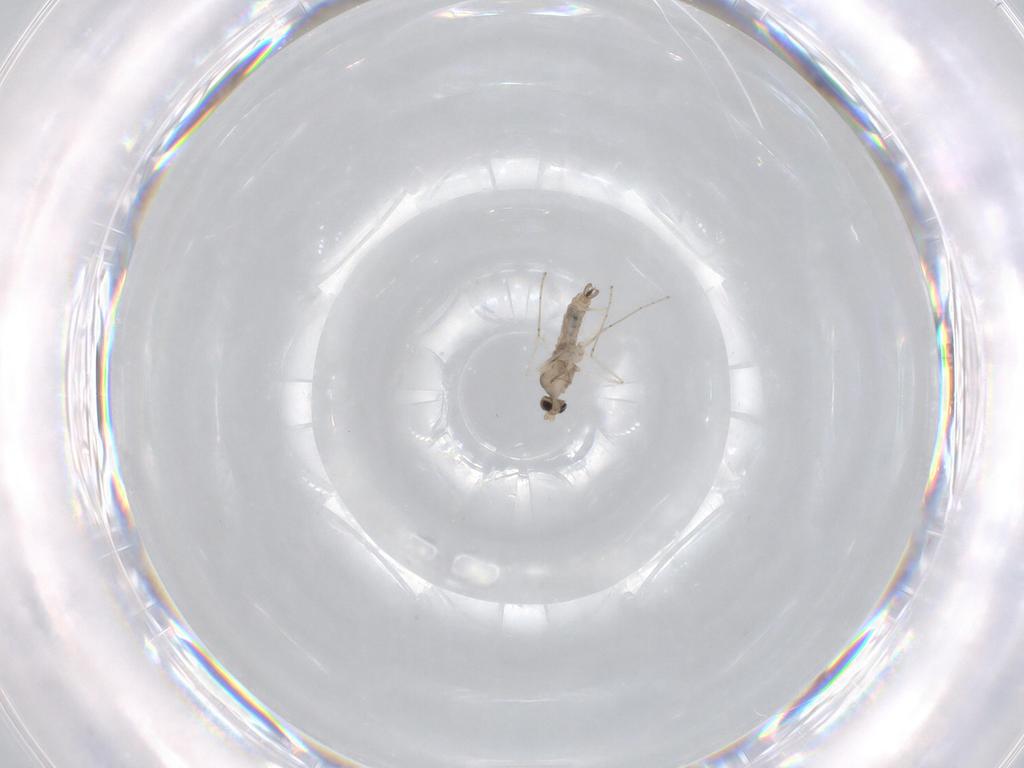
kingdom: Animalia
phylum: Arthropoda
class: Insecta
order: Diptera
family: Cecidomyiidae
